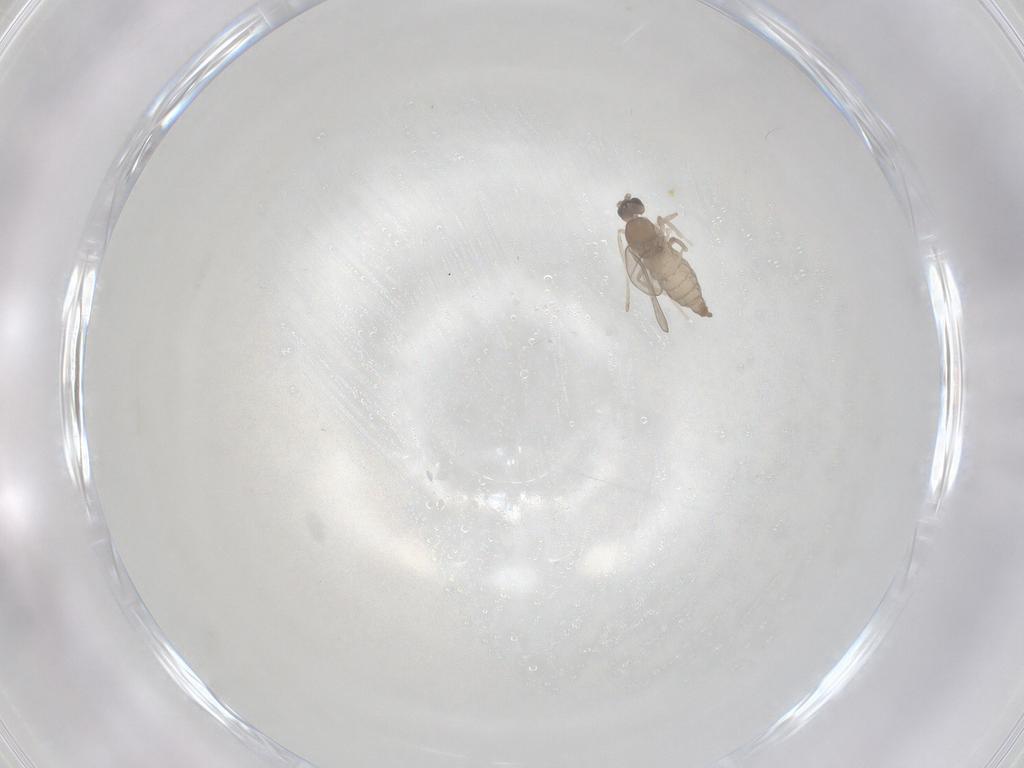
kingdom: Animalia
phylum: Arthropoda
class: Insecta
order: Diptera
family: Cecidomyiidae
